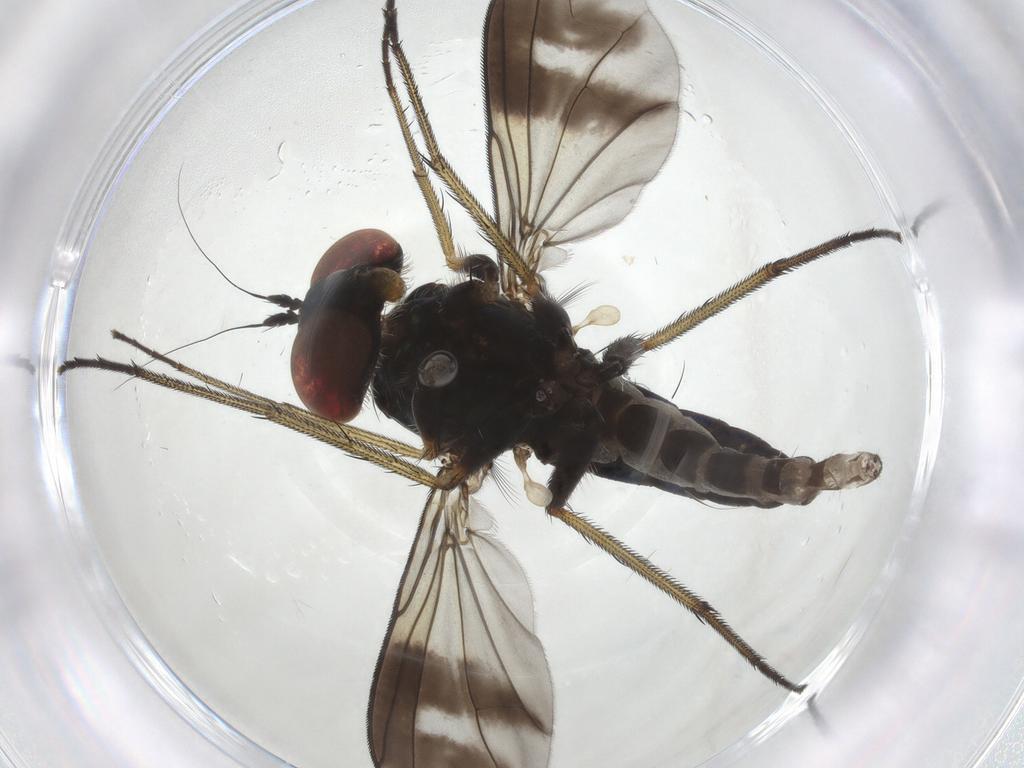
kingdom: Animalia
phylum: Arthropoda
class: Insecta
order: Diptera
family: Dolichopodidae
